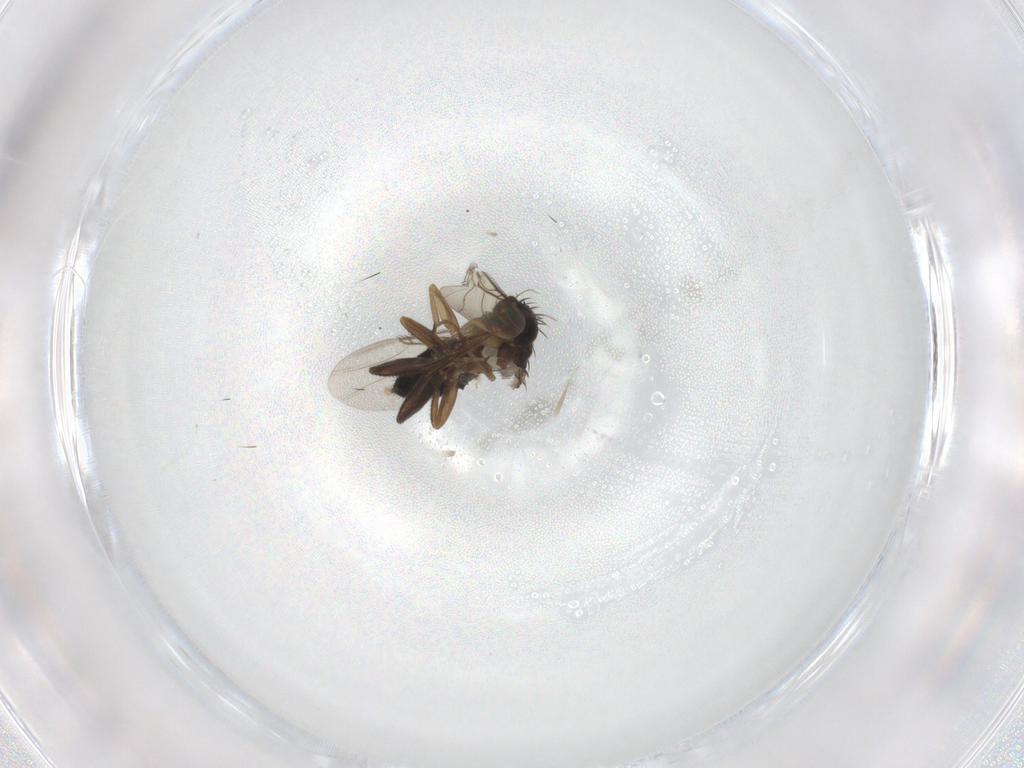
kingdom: Animalia
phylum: Arthropoda
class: Insecta
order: Diptera
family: Phoridae
